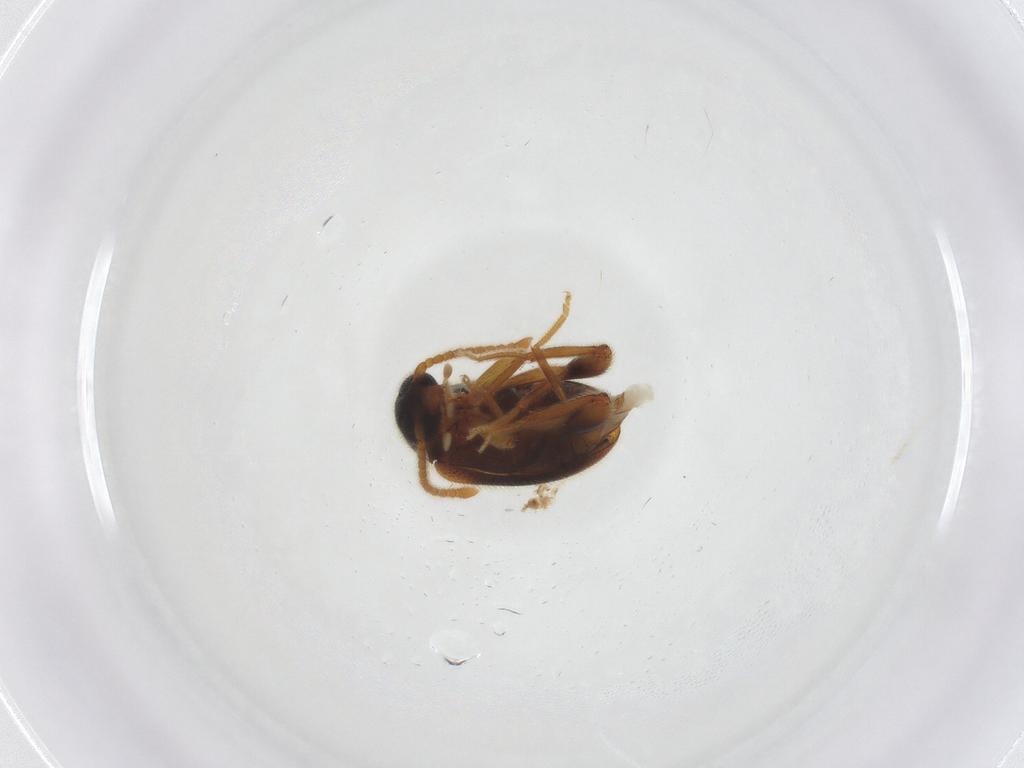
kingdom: Animalia
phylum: Arthropoda
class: Insecta
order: Coleoptera
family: Aderidae
